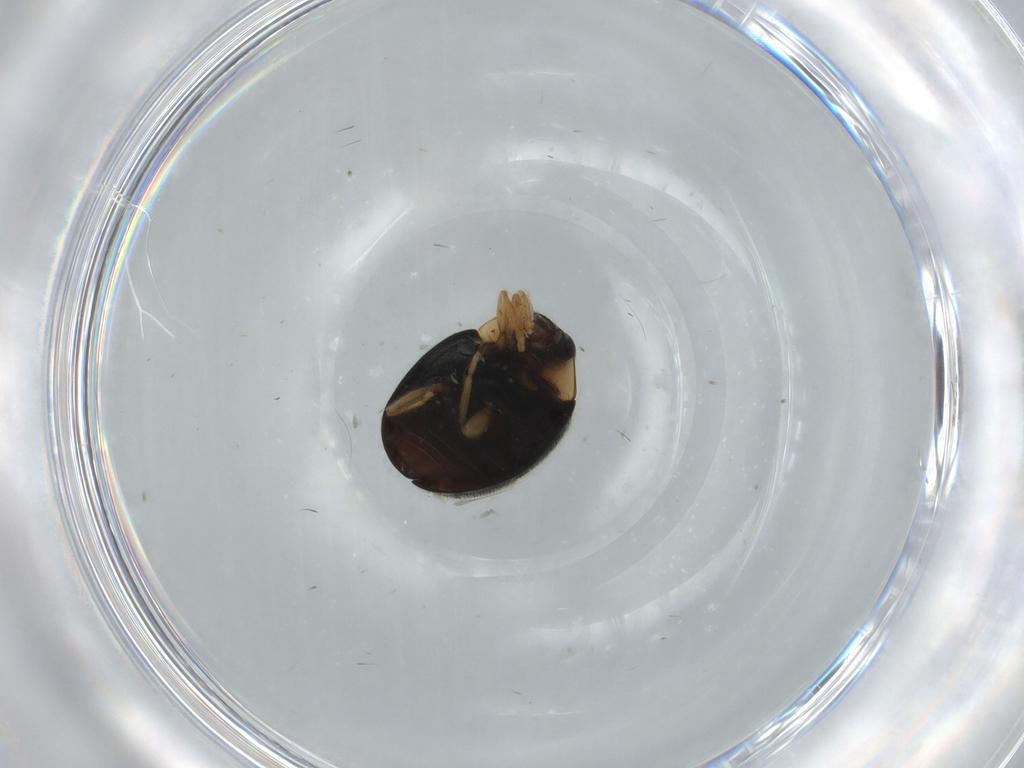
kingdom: Animalia
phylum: Arthropoda
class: Insecta
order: Coleoptera
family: Coccinellidae
